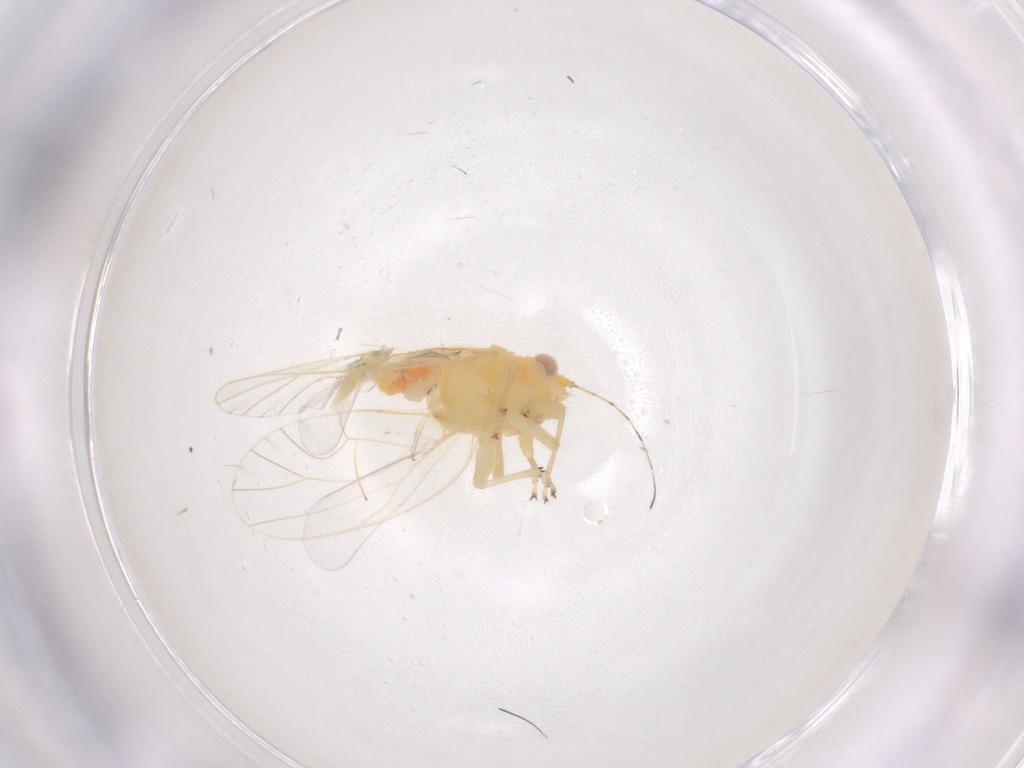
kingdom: Animalia
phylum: Arthropoda
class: Insecta
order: Hemiptera
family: Psyllidae
